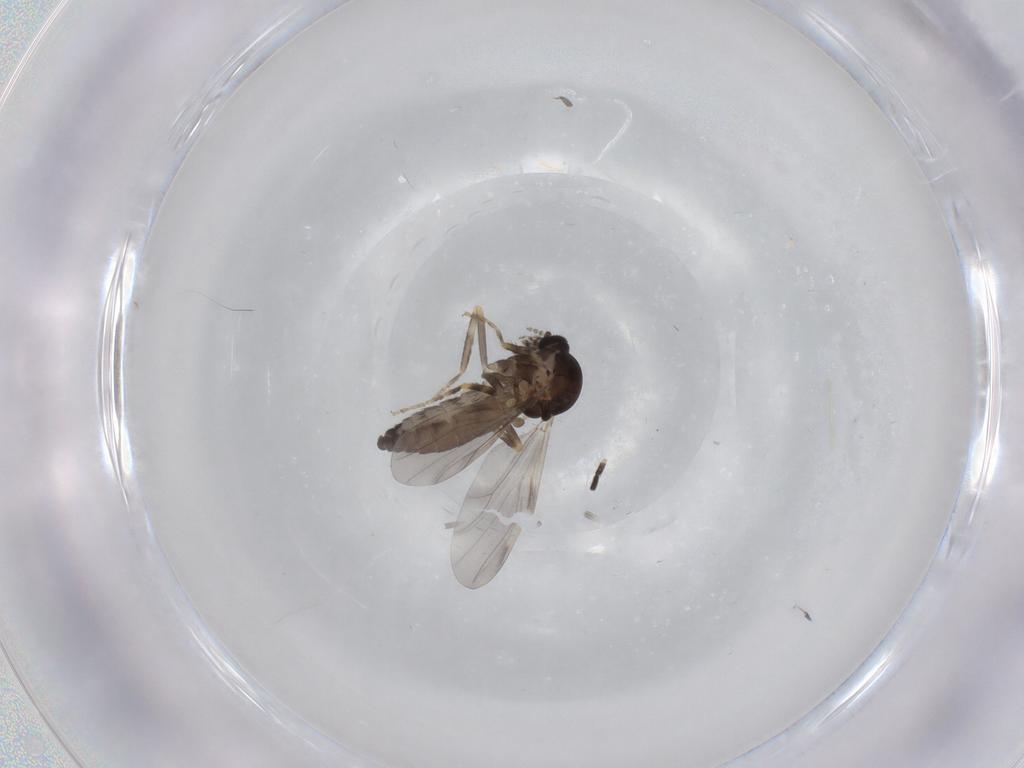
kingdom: Animalia
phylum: Arthropoda
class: Insecta
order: Diptera
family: Ceratopogonidae
